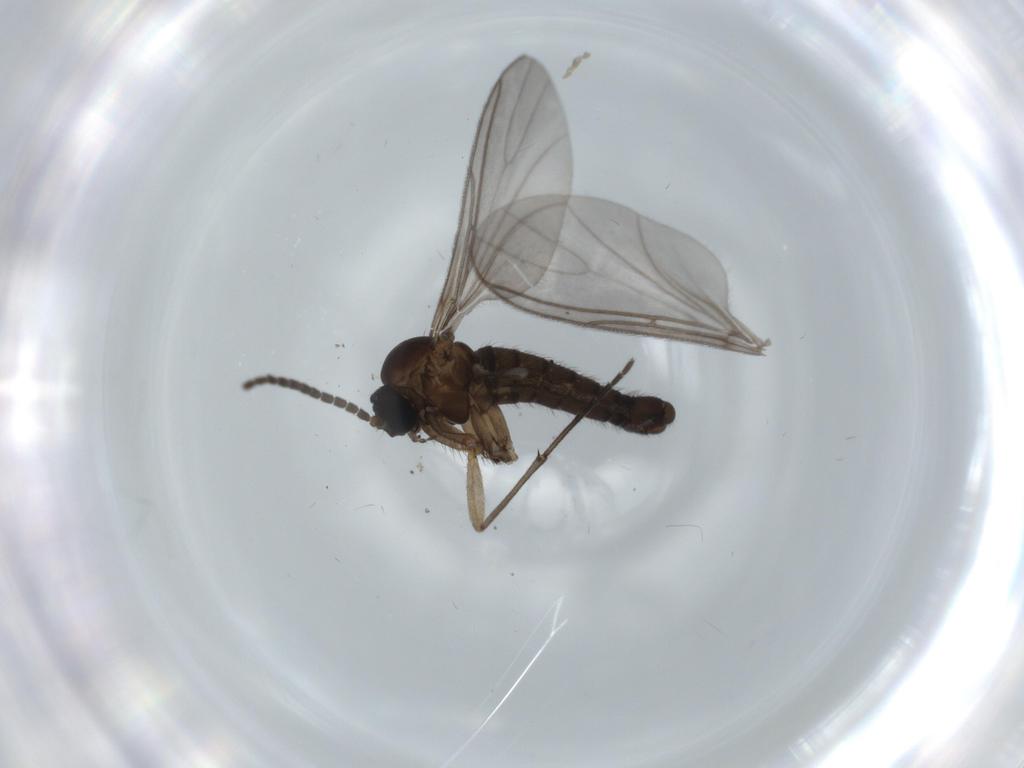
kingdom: Animalia
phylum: Arthropoda
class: Insecta
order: Diptera
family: Sciaridae
